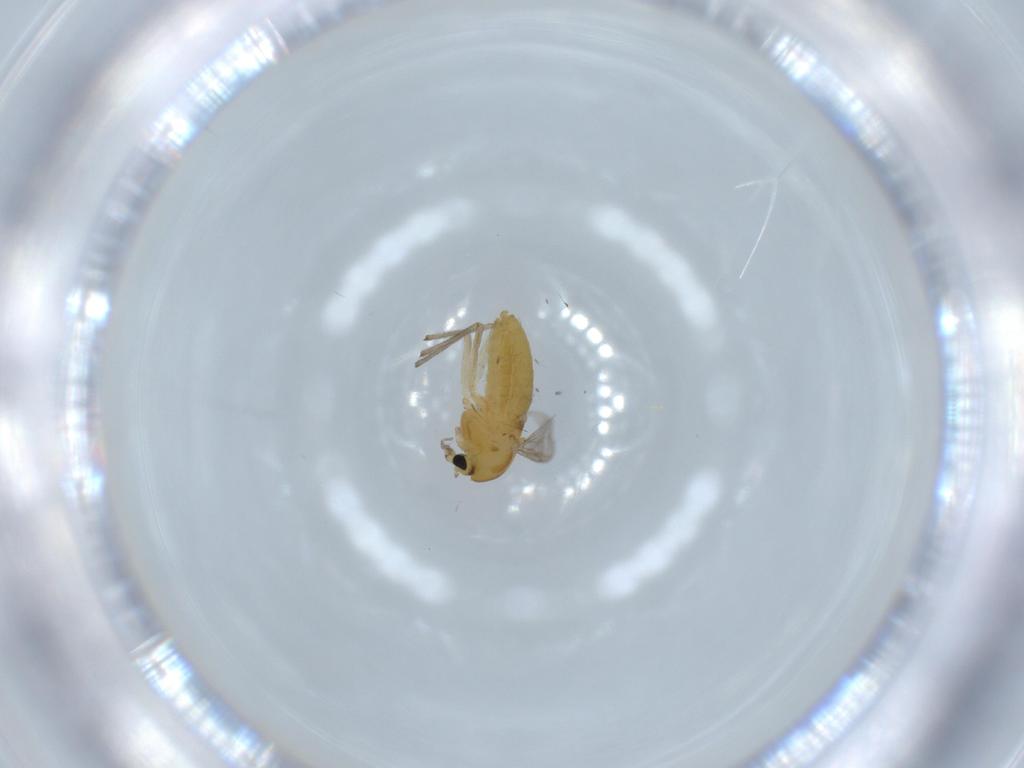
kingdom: Animalia
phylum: Arthropoda
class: Insecta
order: Diptera
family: Chironomidae
